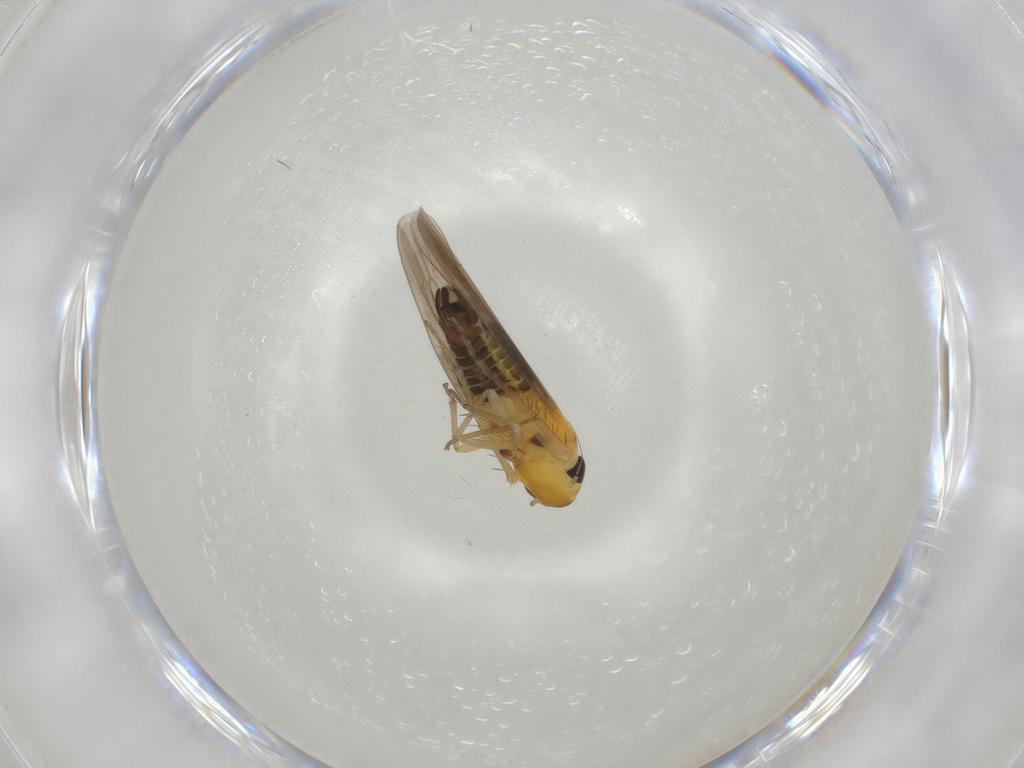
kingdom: Animalia
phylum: Arthropoda
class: Insecta
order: Hemiptera
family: Cicadellidae
